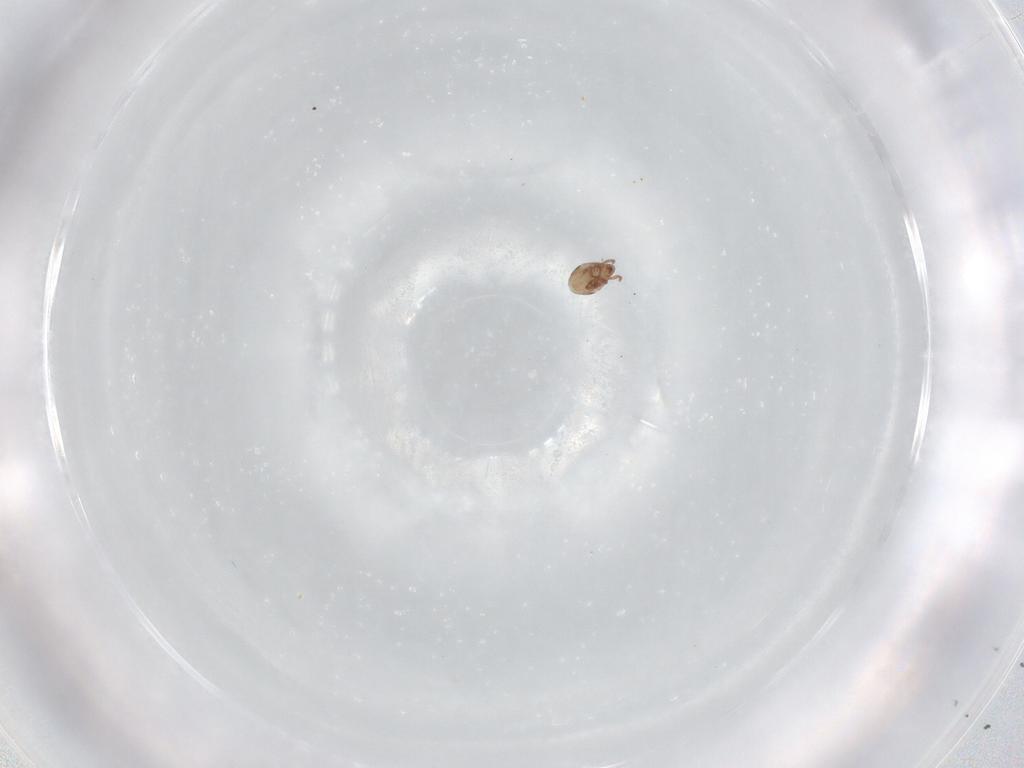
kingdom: Animalia
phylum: Arthropoda
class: Arachnida
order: Sarcoptiformes
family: Ceratozetidae
